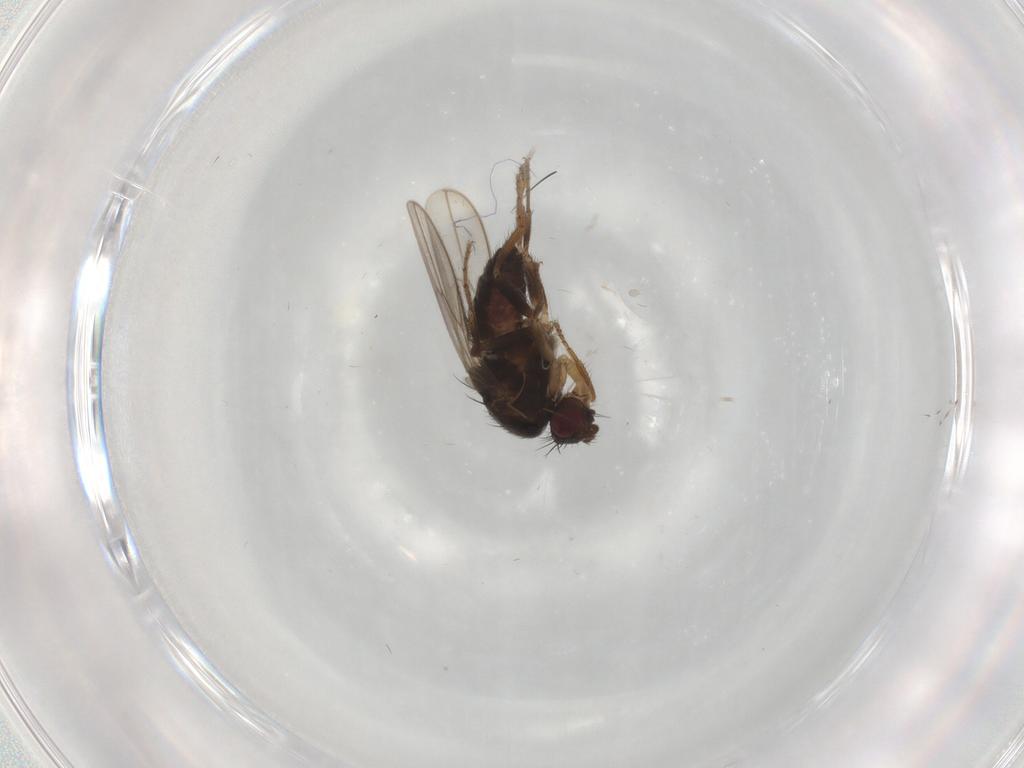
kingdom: Animalia
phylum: Arthropoda
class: Insecta
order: Diptera
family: Sphaeroceridae
